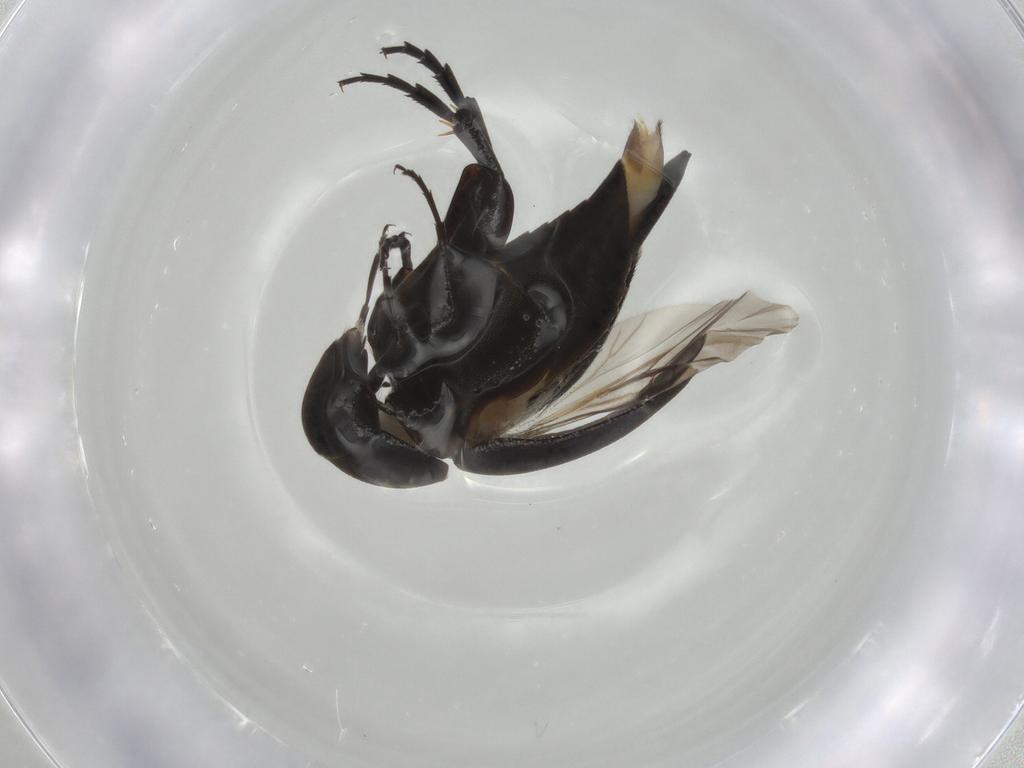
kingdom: Animalia
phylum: Arthropoda
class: Insecta
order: Coleoptera
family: Mordellidae
